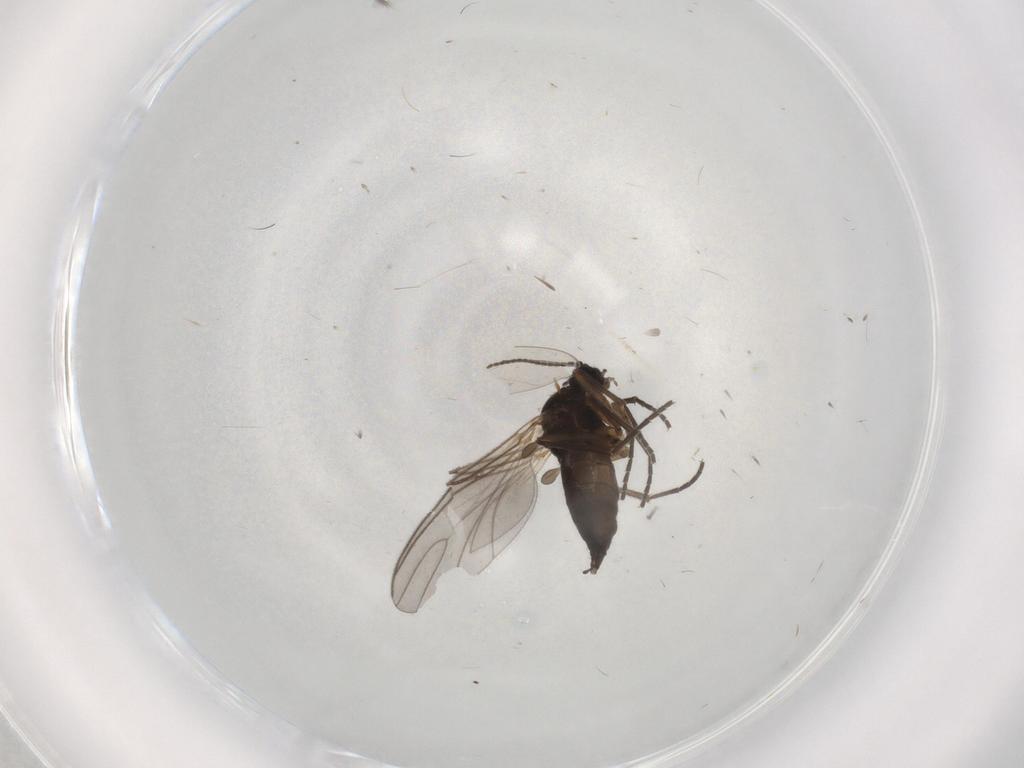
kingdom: Animalia
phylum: Arthropoda
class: Insecta
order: Diptera
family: Sciaridae
